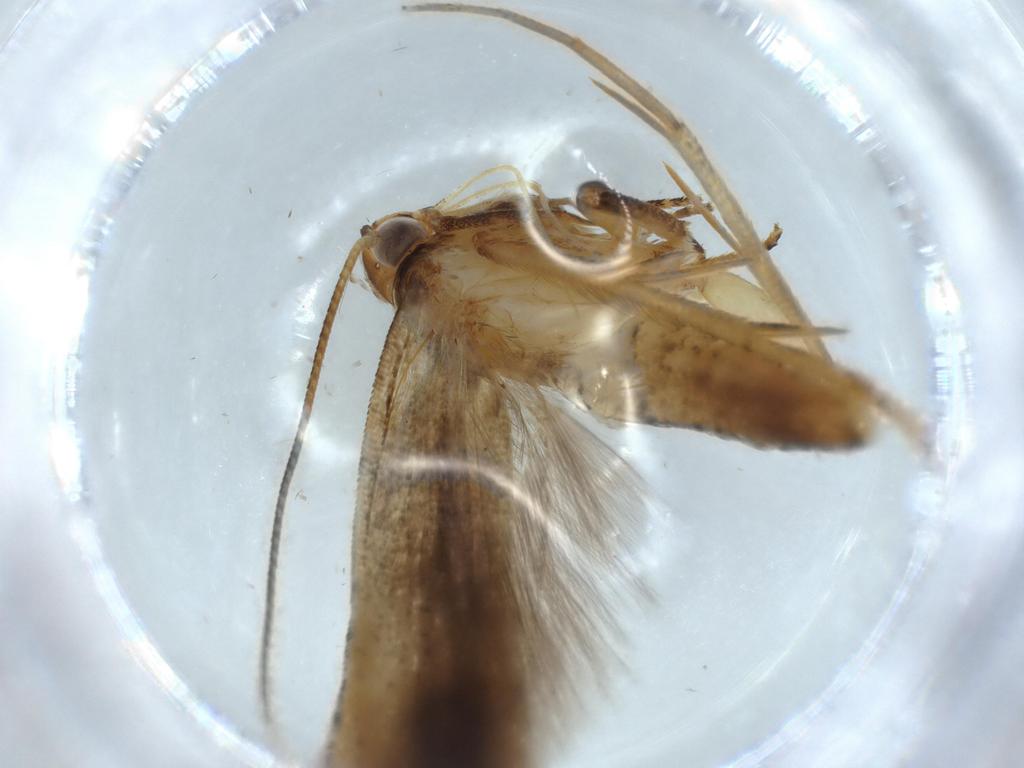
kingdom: Animalia
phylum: Arthropoda
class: Insecta
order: Lepidoptera
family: Gelechiidae
